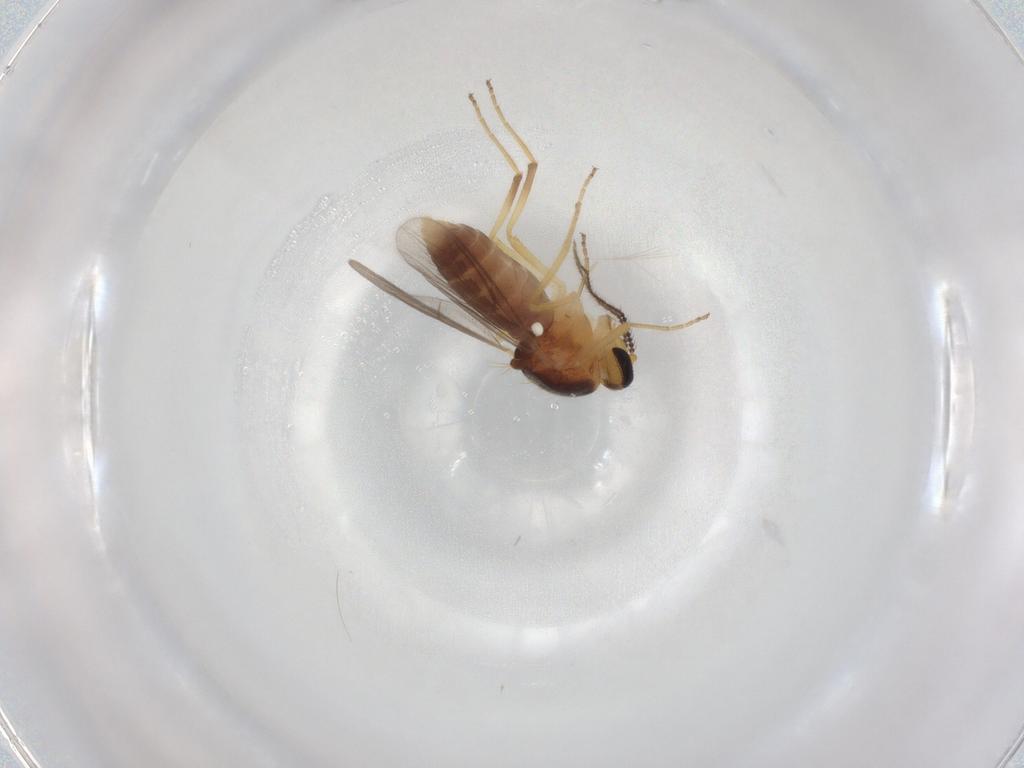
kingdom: Animalia
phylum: Arthropoda
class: Insecta
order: Diptera
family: Ceratopogonidae
